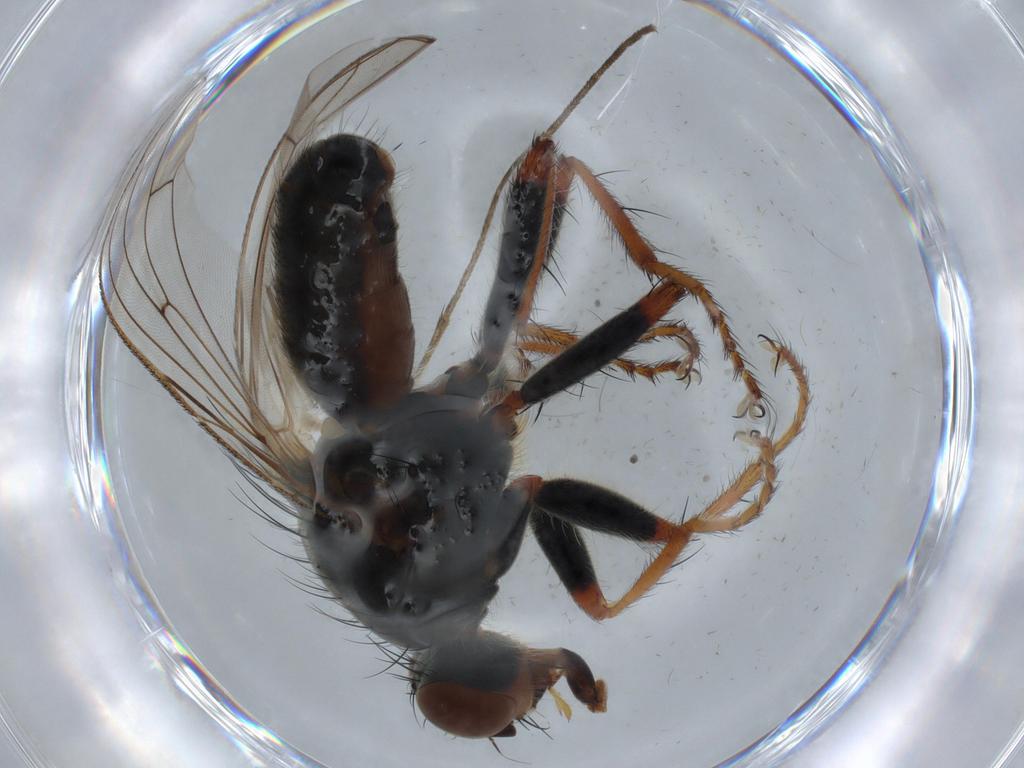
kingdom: Animalia
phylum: Arthropoda
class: Insecta
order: Diptera
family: Scathophagidae
